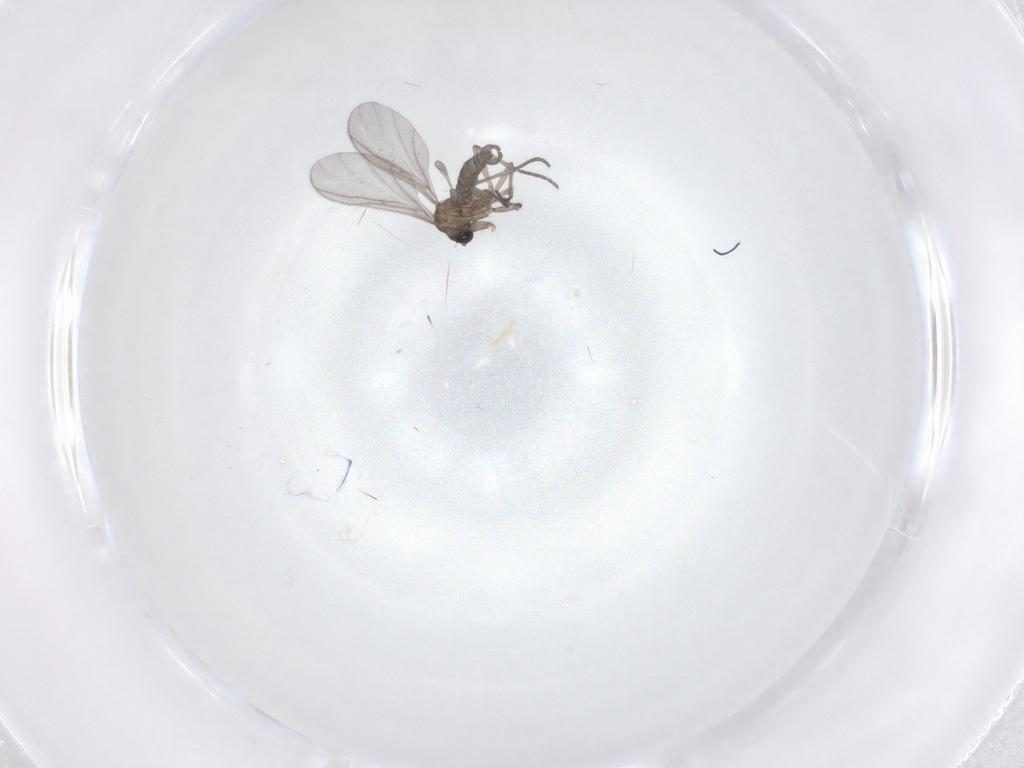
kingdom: Animalia
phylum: Arthropoda
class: Insecta
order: Diptera
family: Sciaridae
